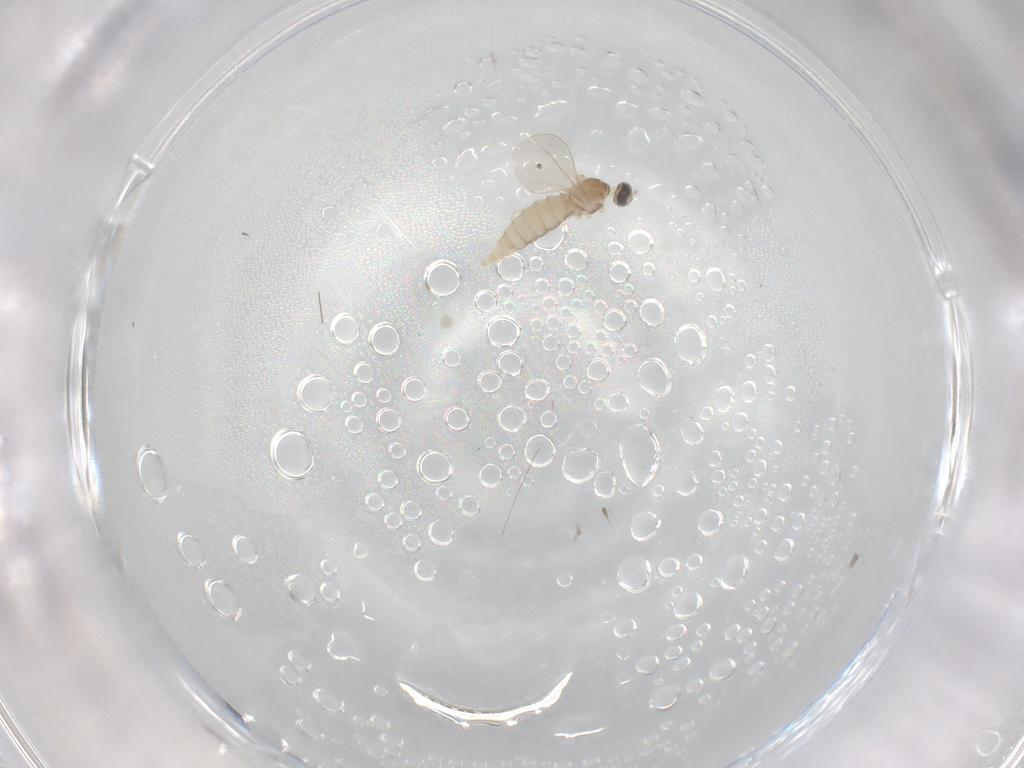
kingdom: Animalia
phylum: Arthropoda
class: Insecta
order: Diptera
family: Cecidomyiidae
